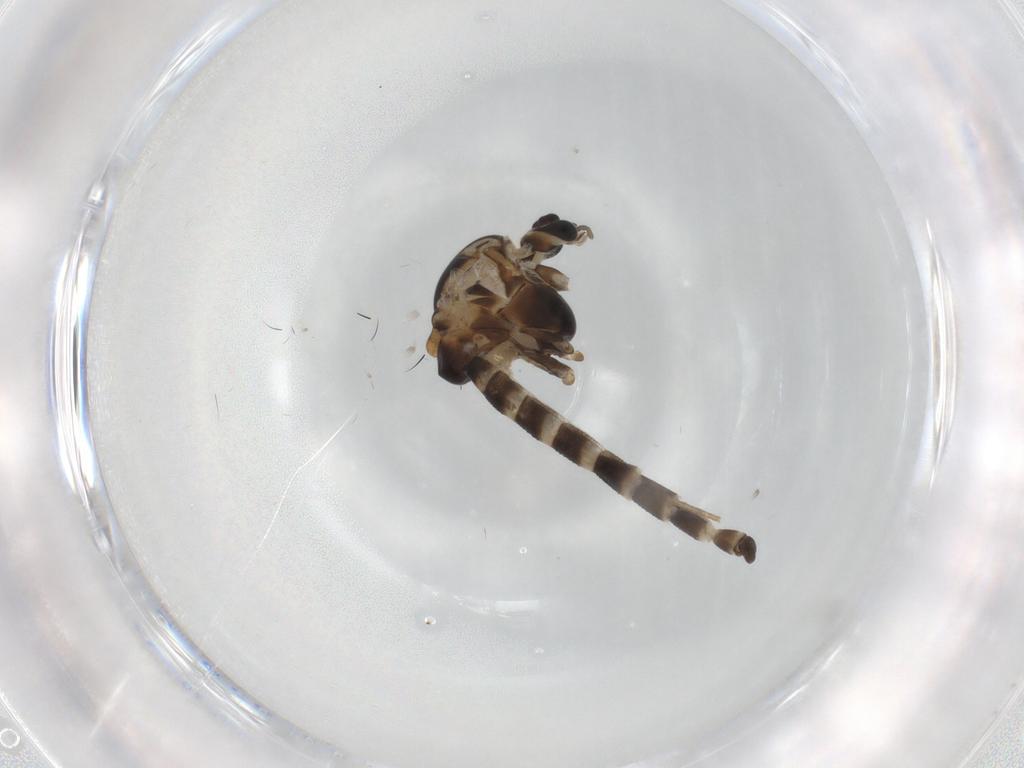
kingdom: Animalia
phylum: Arthropoda
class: Insecta
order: Diptera
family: Chironomidae
